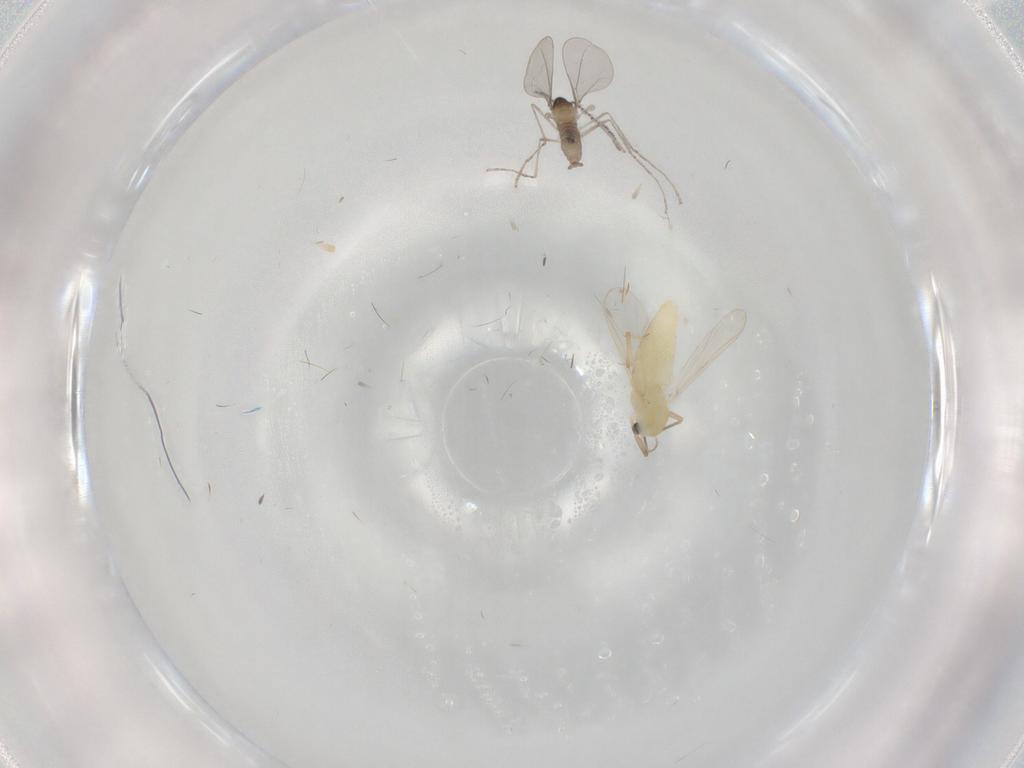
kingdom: Animalia
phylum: Arthropoda
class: Insecta
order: Diptera
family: Chironomidae
